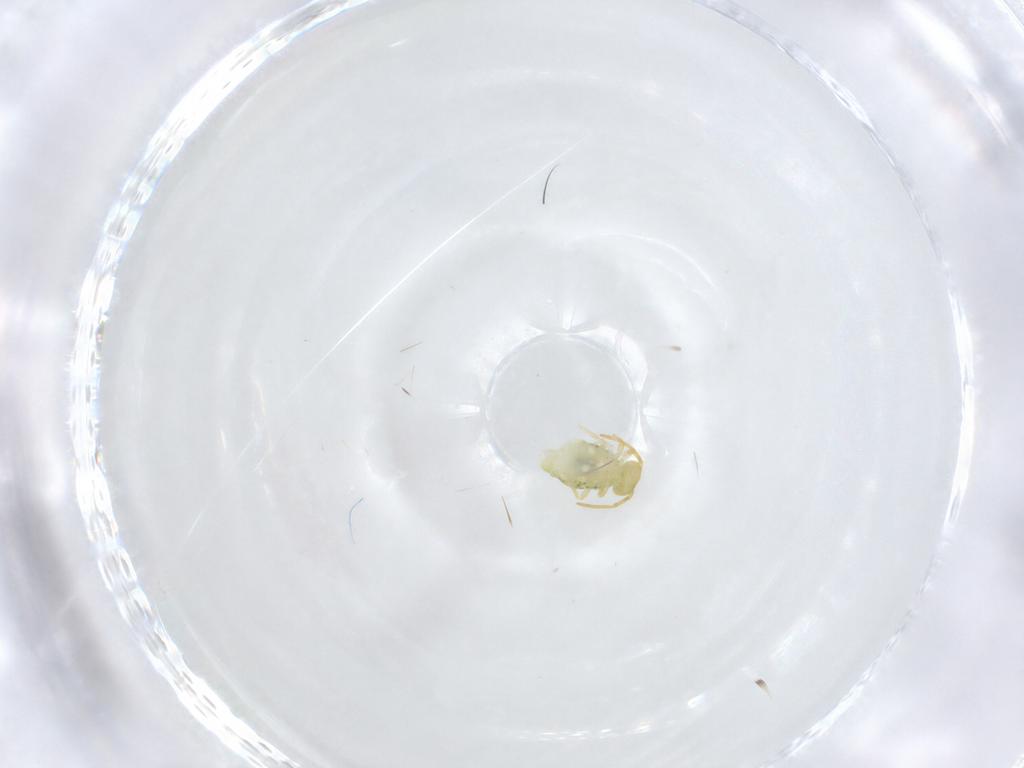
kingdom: Animalia
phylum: Arthropoda
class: Collembola
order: Symphypleona
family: Katiannidae
